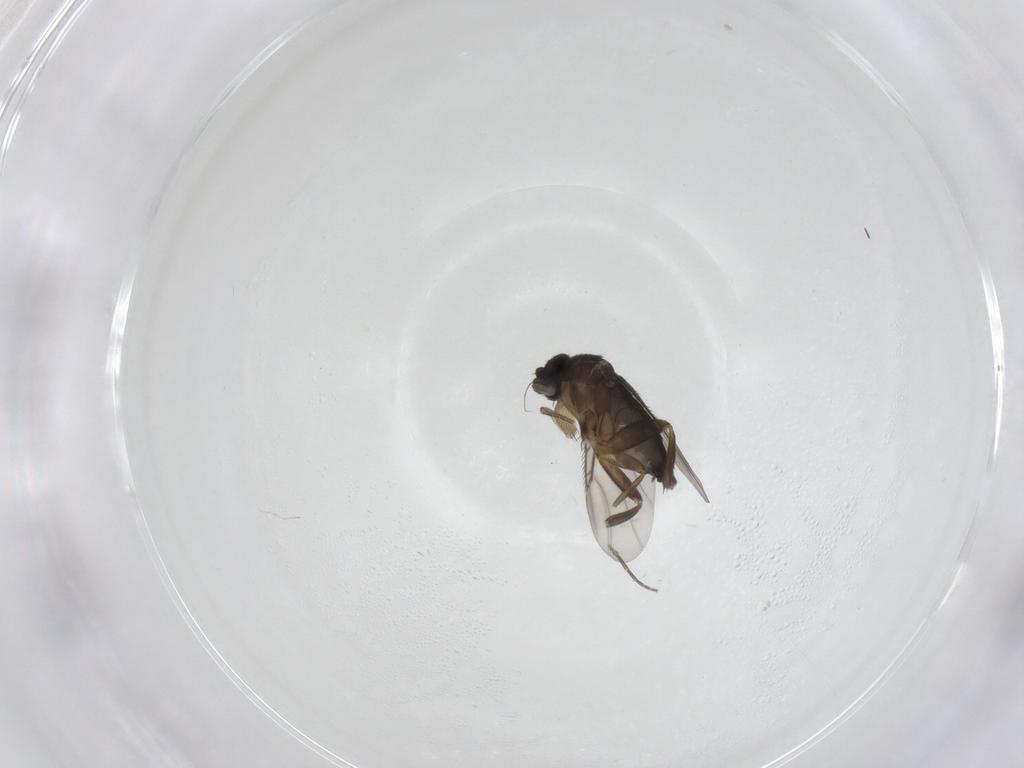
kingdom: Animalia
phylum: Arthropoda
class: Insecta
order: Diptera
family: Phoridae
